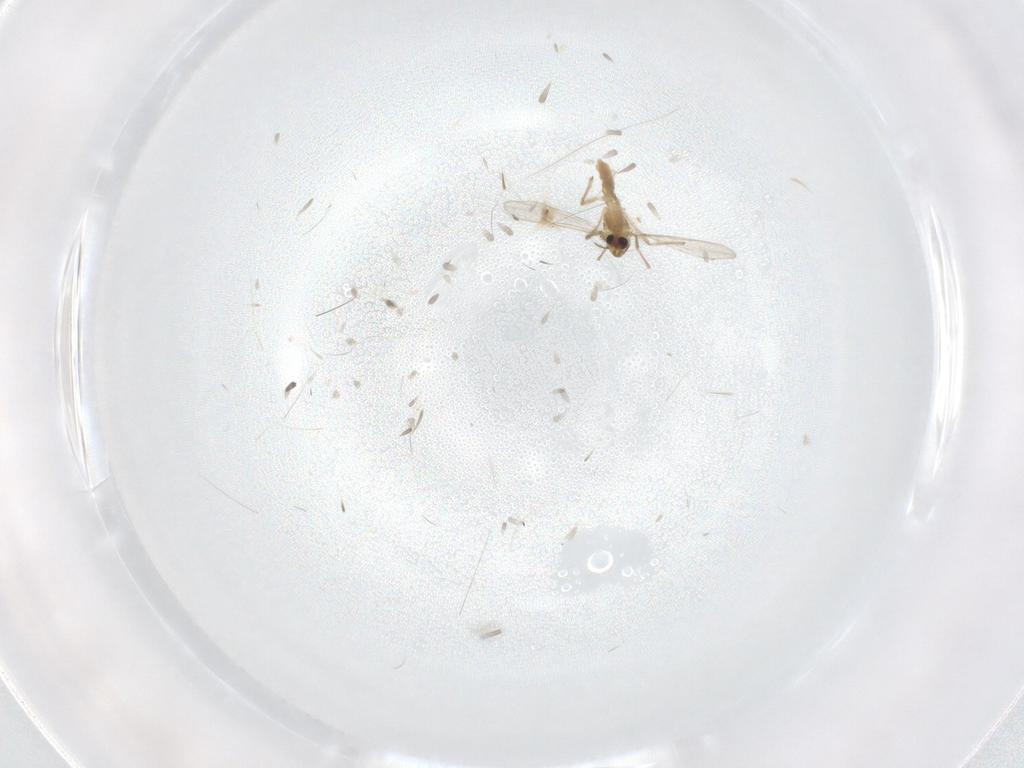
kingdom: Animalia
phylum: Arthropoda
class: Insecta
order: Diptera
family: Chironomidae
